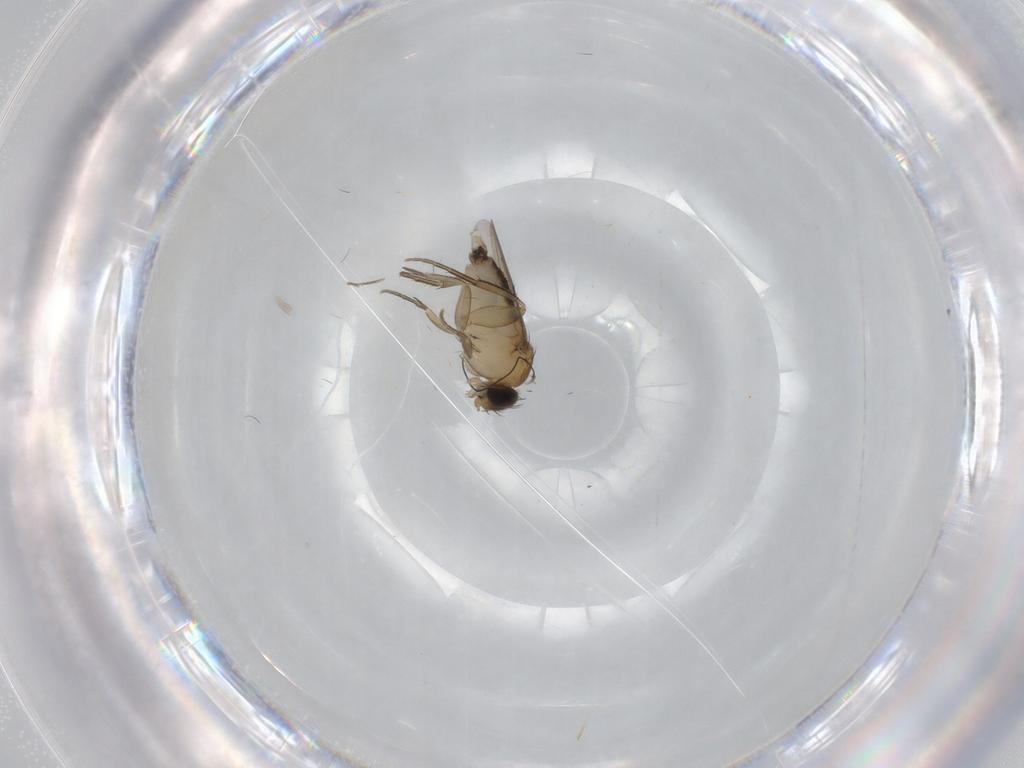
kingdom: Animalia
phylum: Arthropoda
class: Insecta
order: Diptera
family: Phoridae
